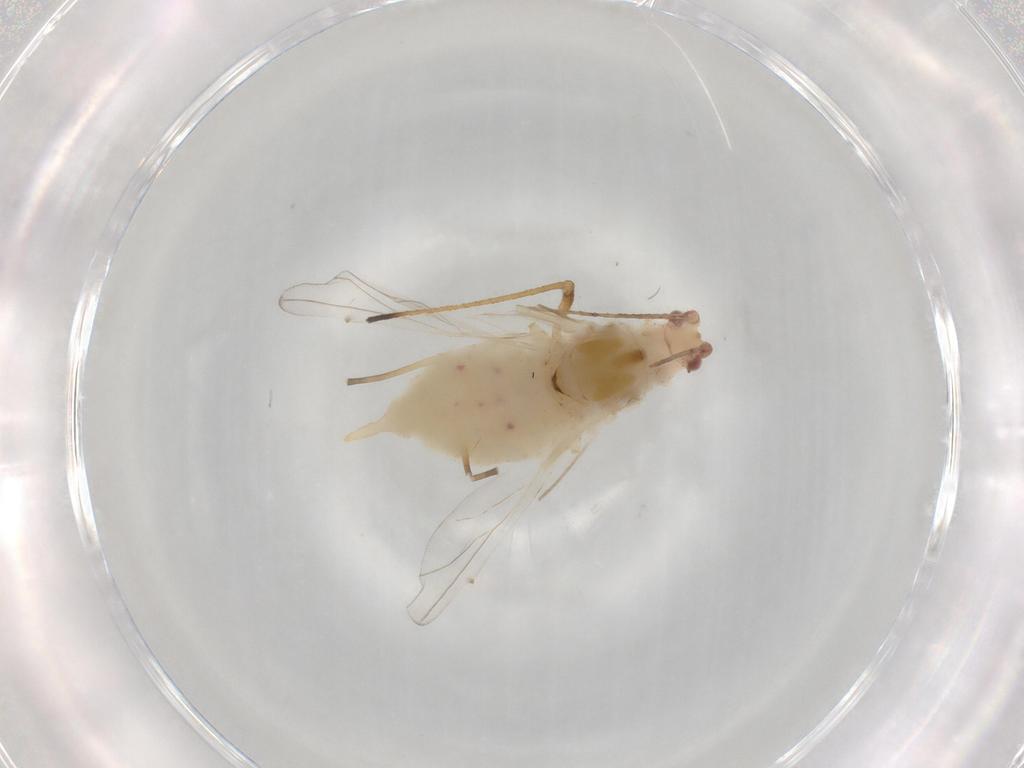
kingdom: Animalia
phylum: Arthropoda
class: Insecta
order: Hemiptera
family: Aphididae
